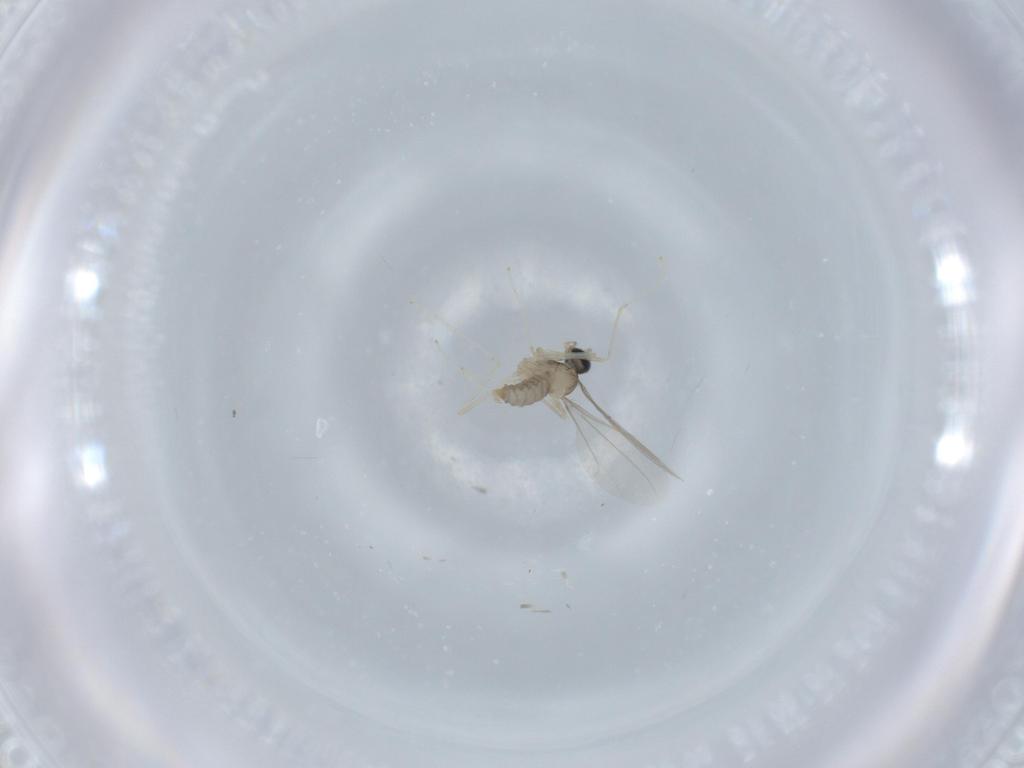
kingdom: Animalia
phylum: Arthropoda
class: Insecta
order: Diptera
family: Cecidomyiidae
